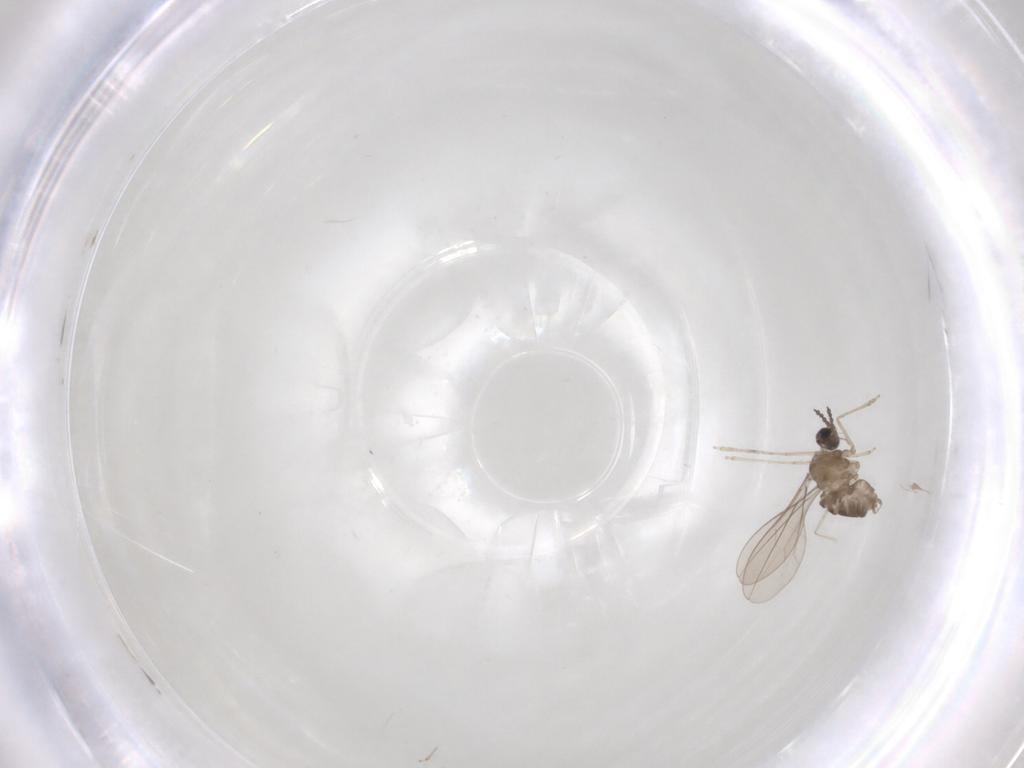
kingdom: Animalia
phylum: Arthropoda
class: Insecta
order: Diptera
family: Cecidomyiidae
